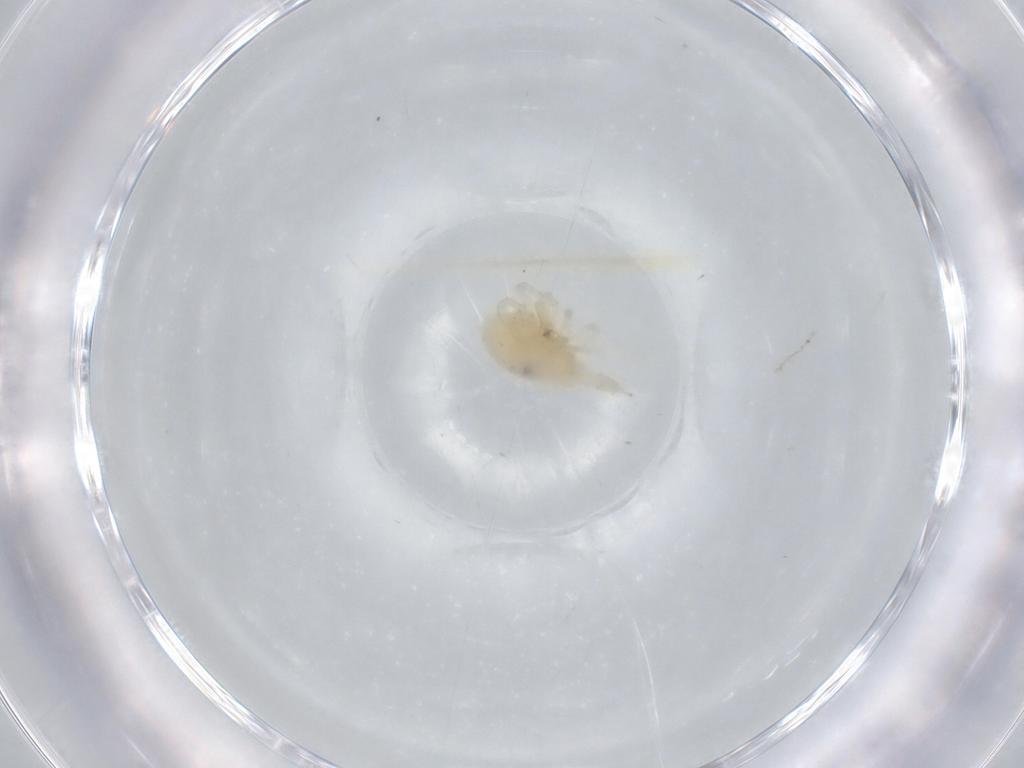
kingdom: Animalia
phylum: Arthropoda
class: Arachnida
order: Trombidiformes
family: Bdellidae
